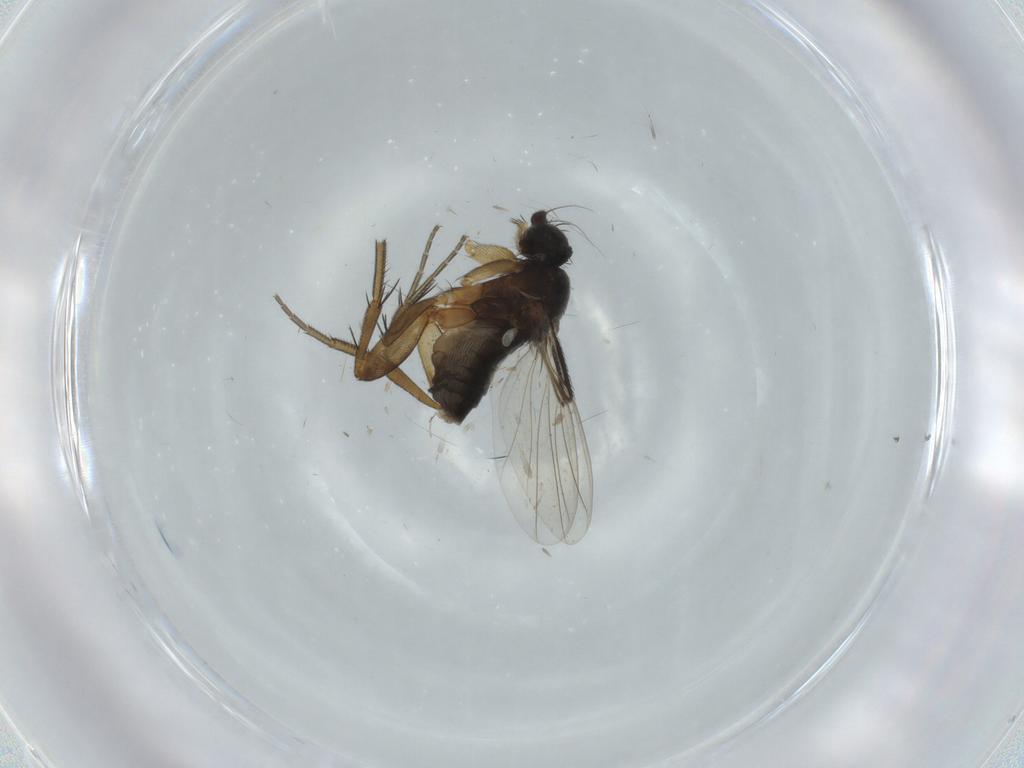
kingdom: Animalia
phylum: Arthropoda
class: Insecta
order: Diptera
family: Phoridae
